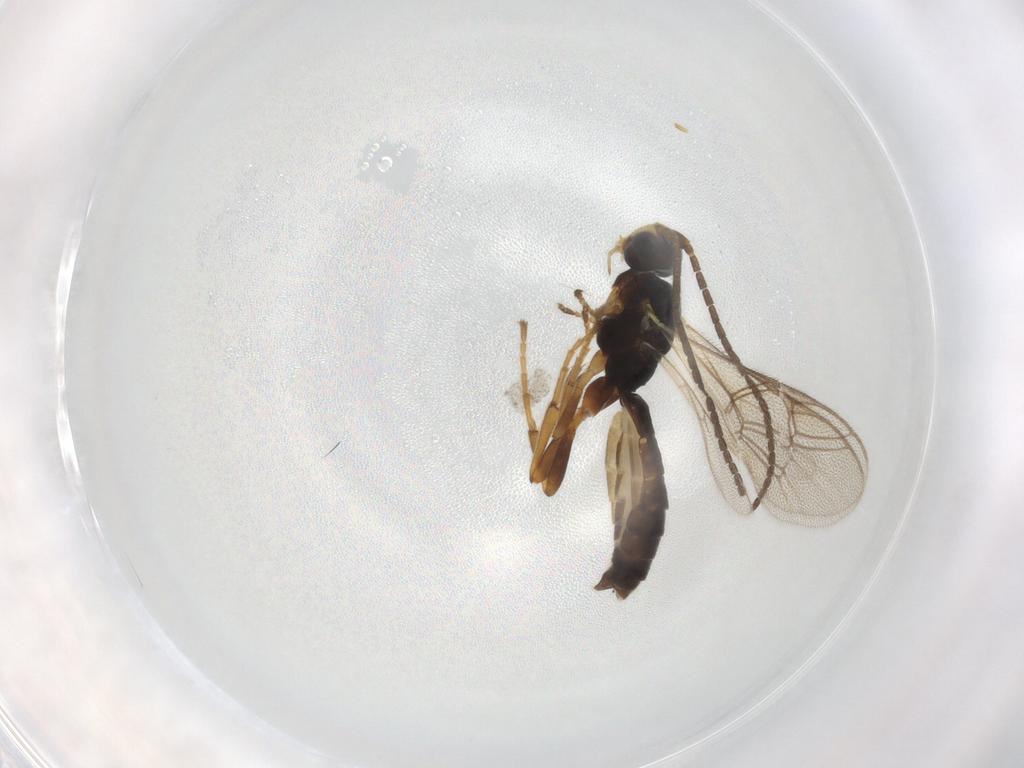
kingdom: Animalia
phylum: Arthropoda
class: Insecta
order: Hymenoptera
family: Ichneumonidae
